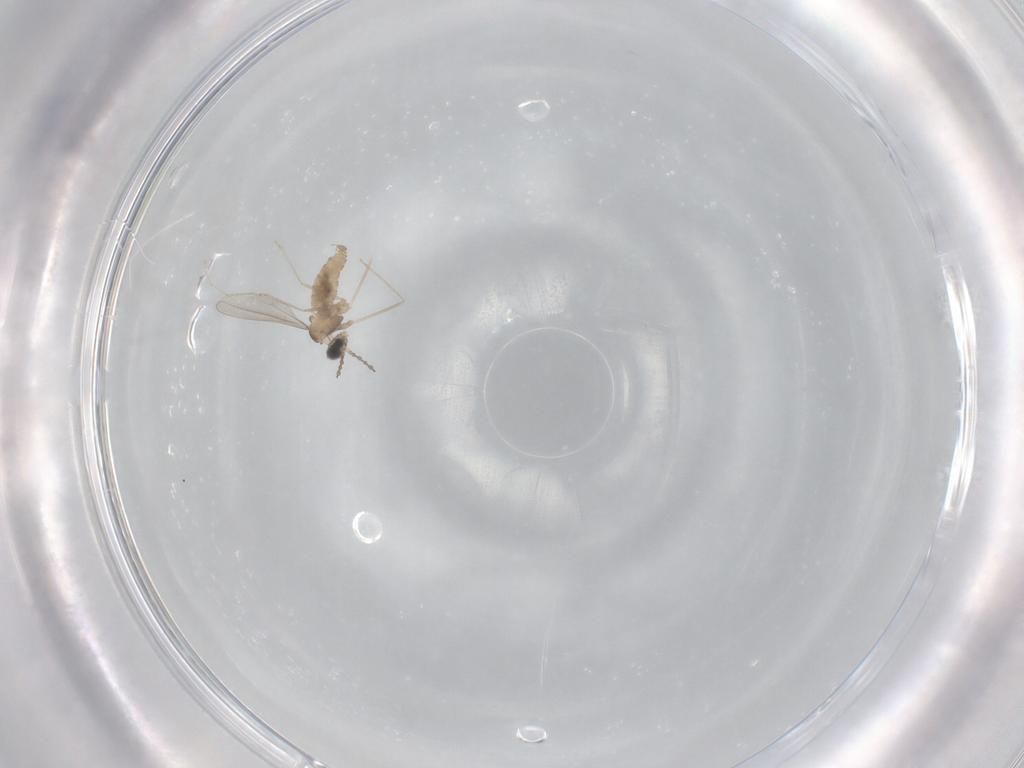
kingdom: Animalia
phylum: Arthropoda
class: Insecta
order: Diptera
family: Cecidomyiidae
